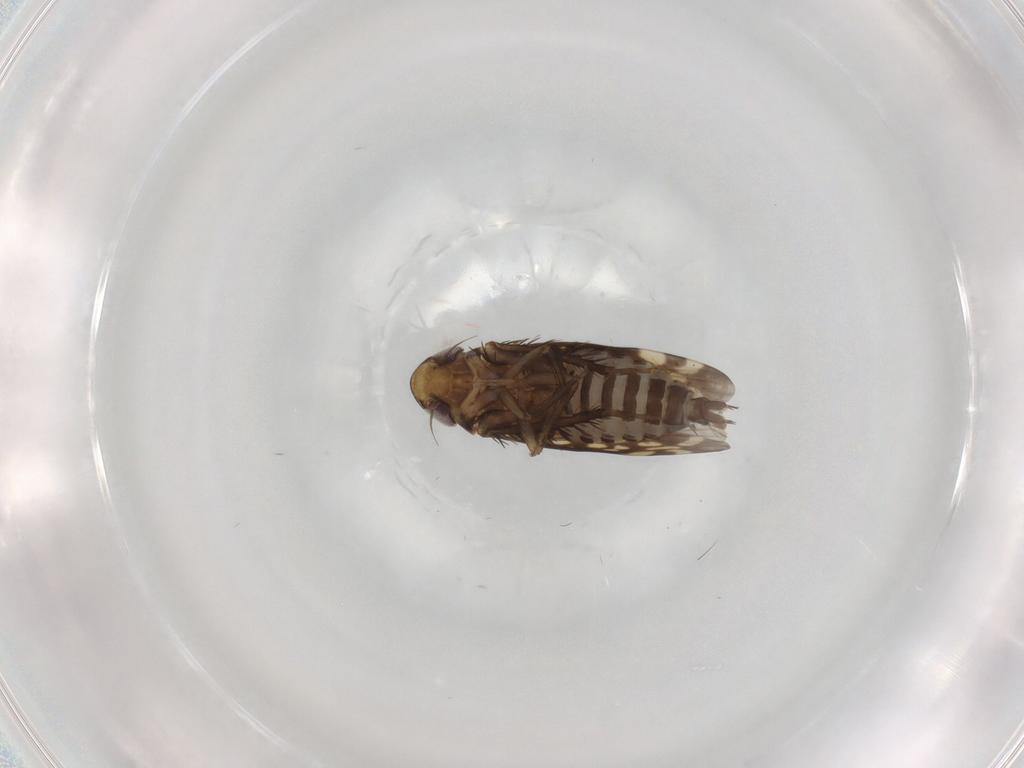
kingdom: Animalia
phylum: Arthropoda
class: Insecta
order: Hemiptera
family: Cicadellidae
